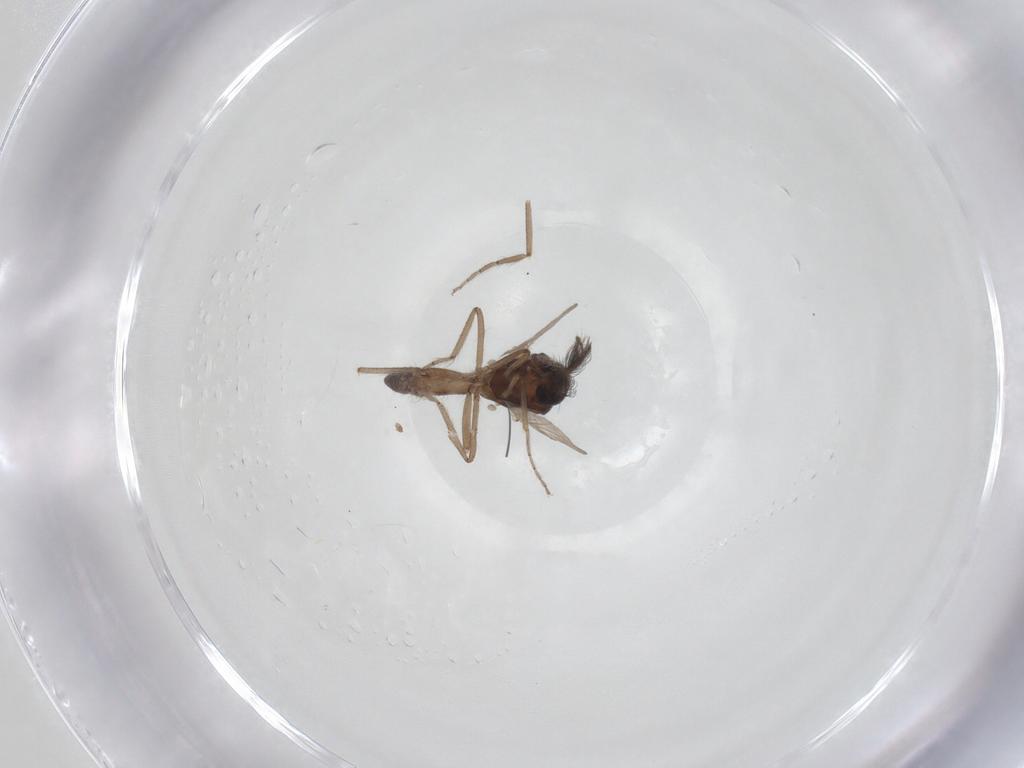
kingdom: Animalia
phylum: Arthropoda
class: Insecta
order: Diptera
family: Ceratopogonidae
